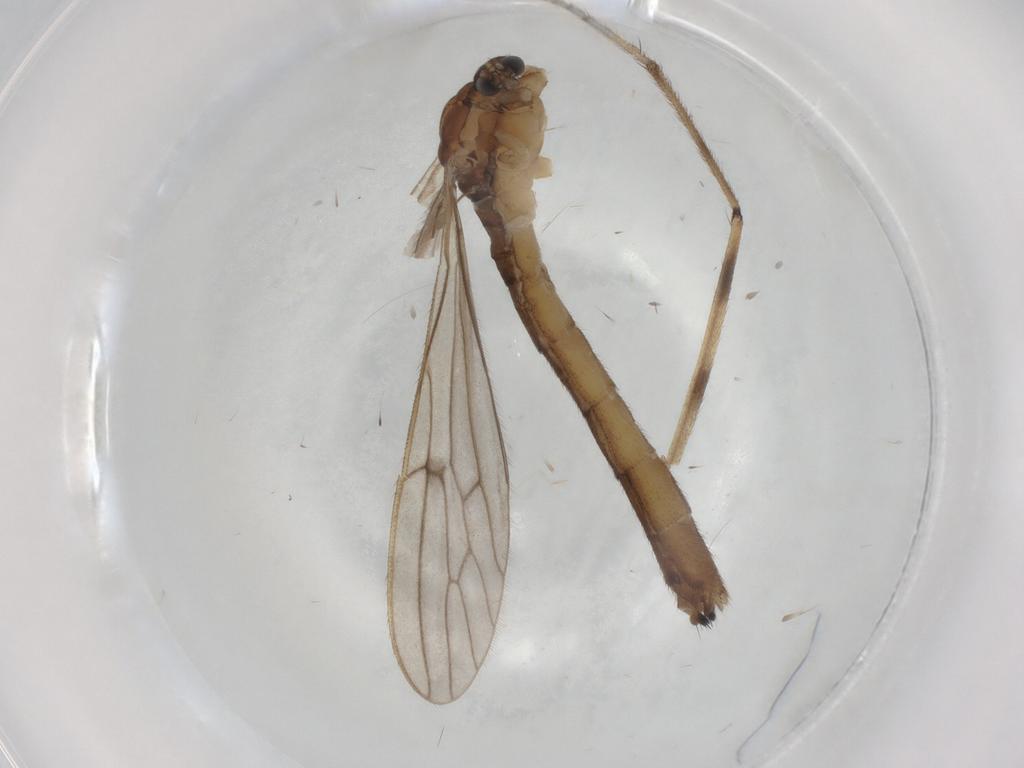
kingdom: Animalia
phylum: Arthropoda
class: Insecta
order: Diptera
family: Limoniidae
